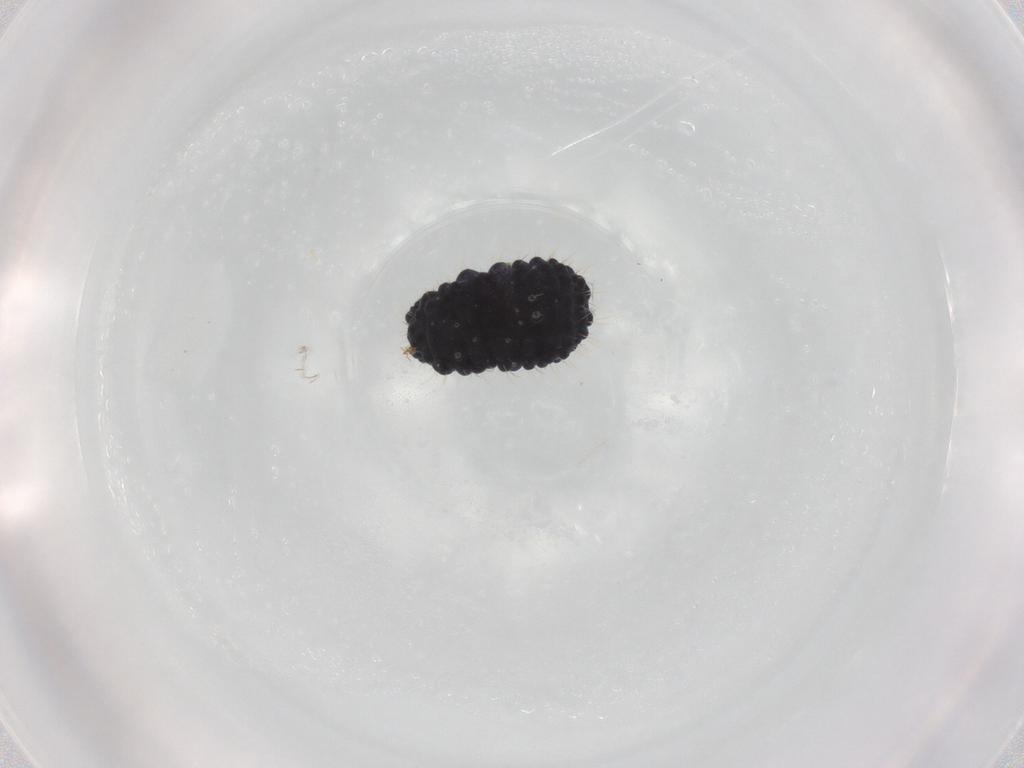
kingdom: Animalia
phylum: Arthropoda
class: Collembola
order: Poduromorpha
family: Neanuridae
